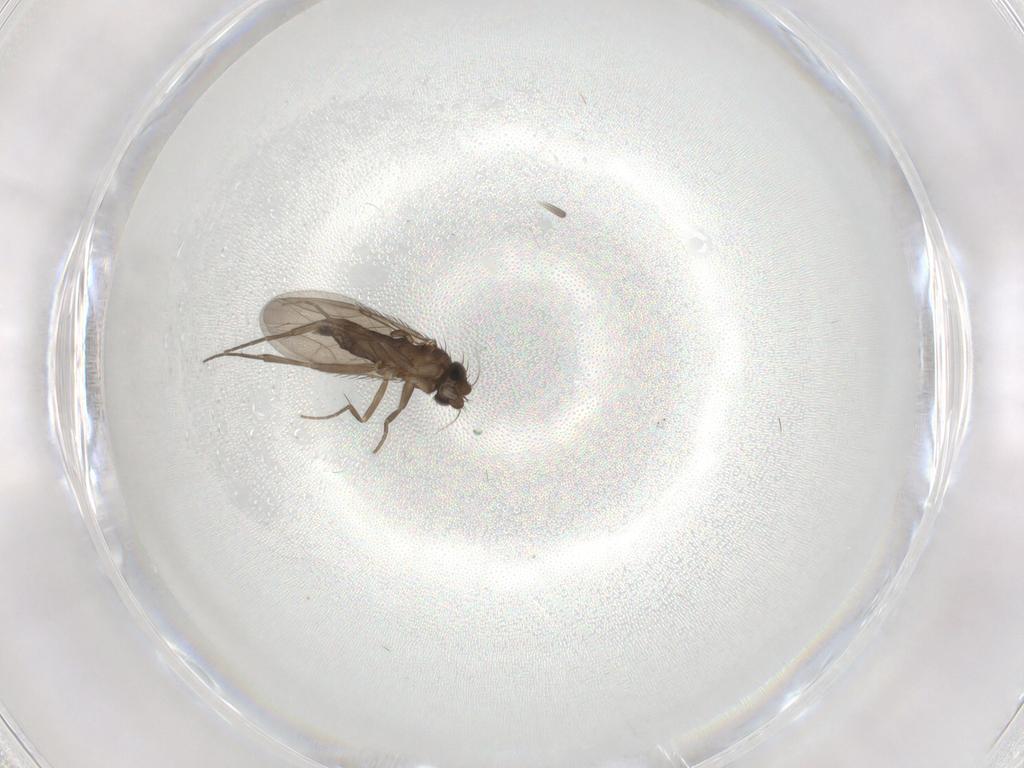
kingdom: Animalia
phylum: Arthropoda
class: Insecta
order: Diptera
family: Phoridae
